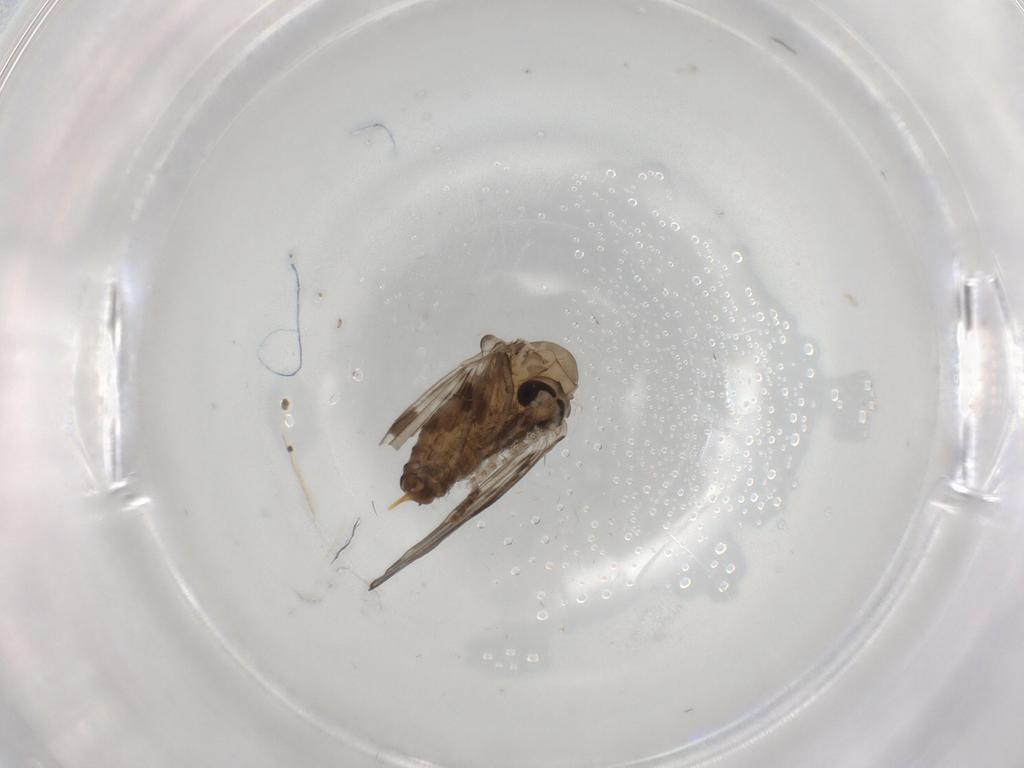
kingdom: Animalia
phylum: Arthropoda
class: Insecta
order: Diptera
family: Psychodidae
